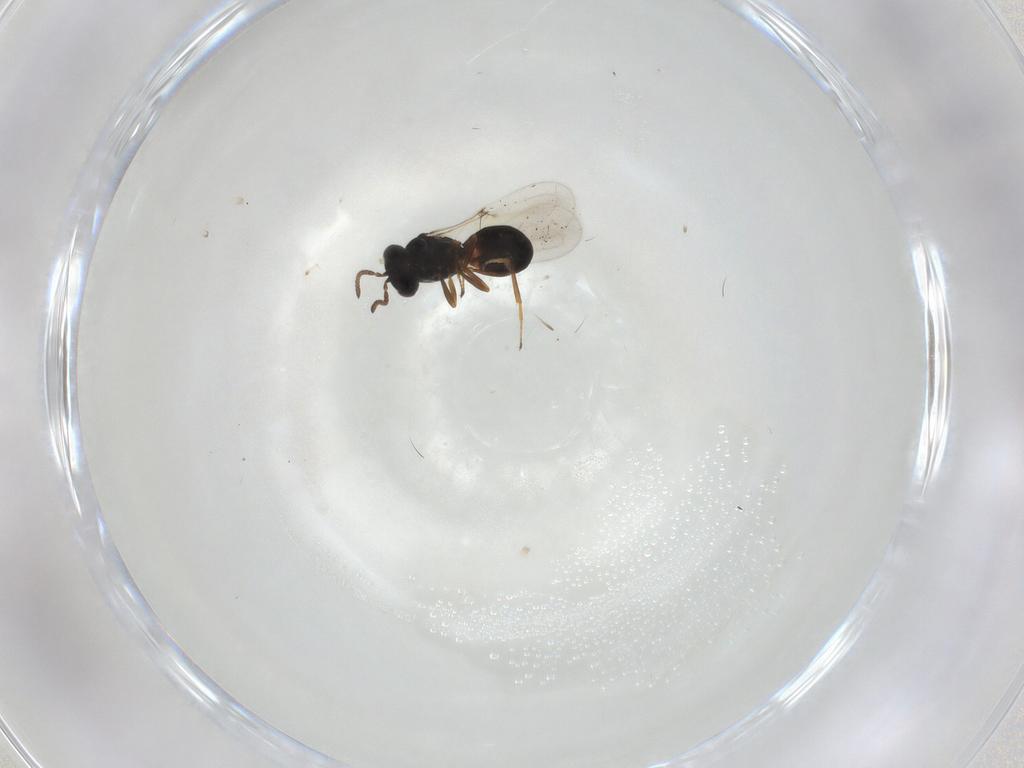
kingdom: Animalia
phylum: Arthropoda
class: Insecta
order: Hymenoptera
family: Scelionidae
